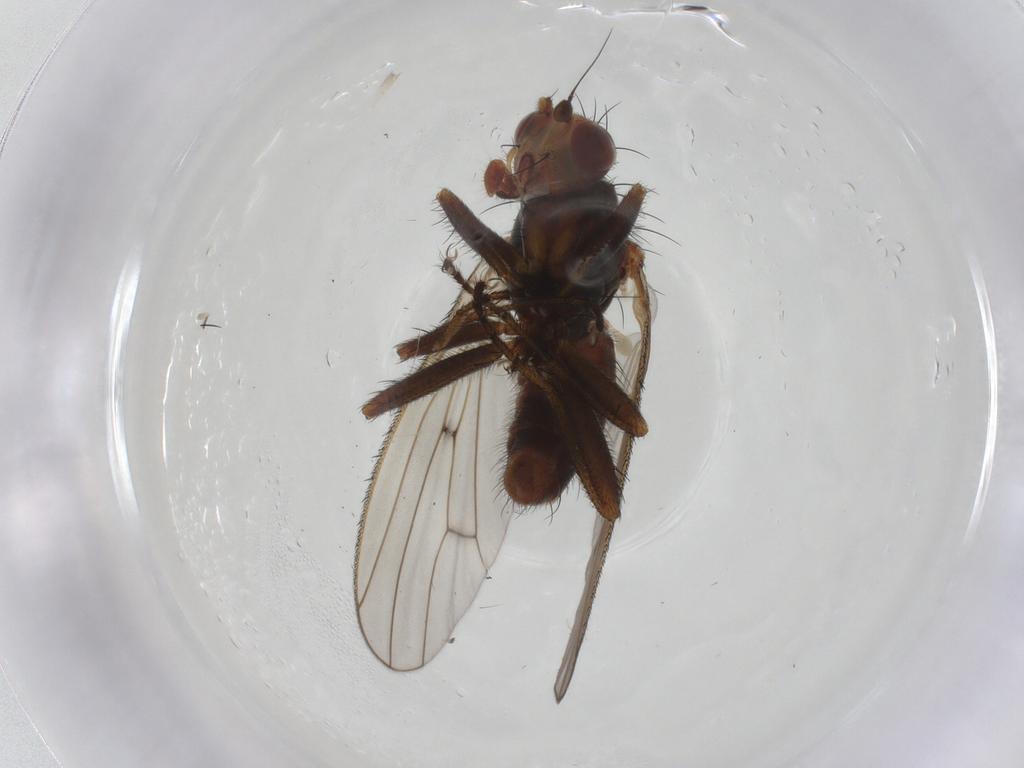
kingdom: Animalia
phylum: Arthropoda
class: Insecta
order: Diptera
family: Heleomyzidae
